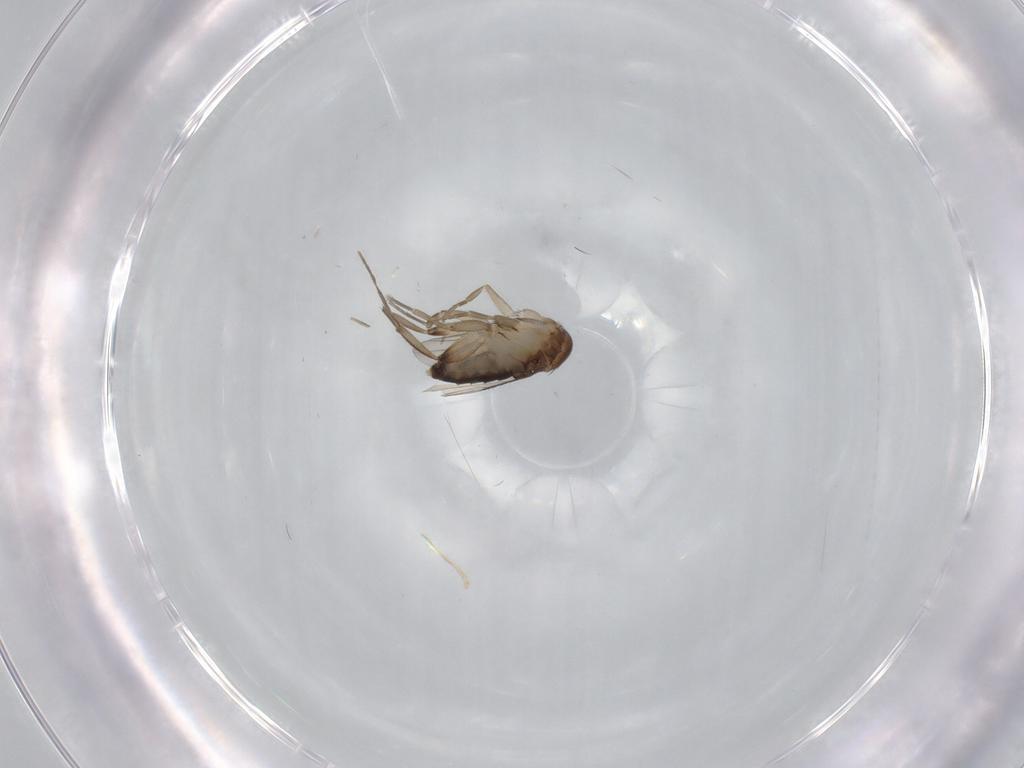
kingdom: Animalia
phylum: Arthropoda
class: Insecta
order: Diptera
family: Phoridae
